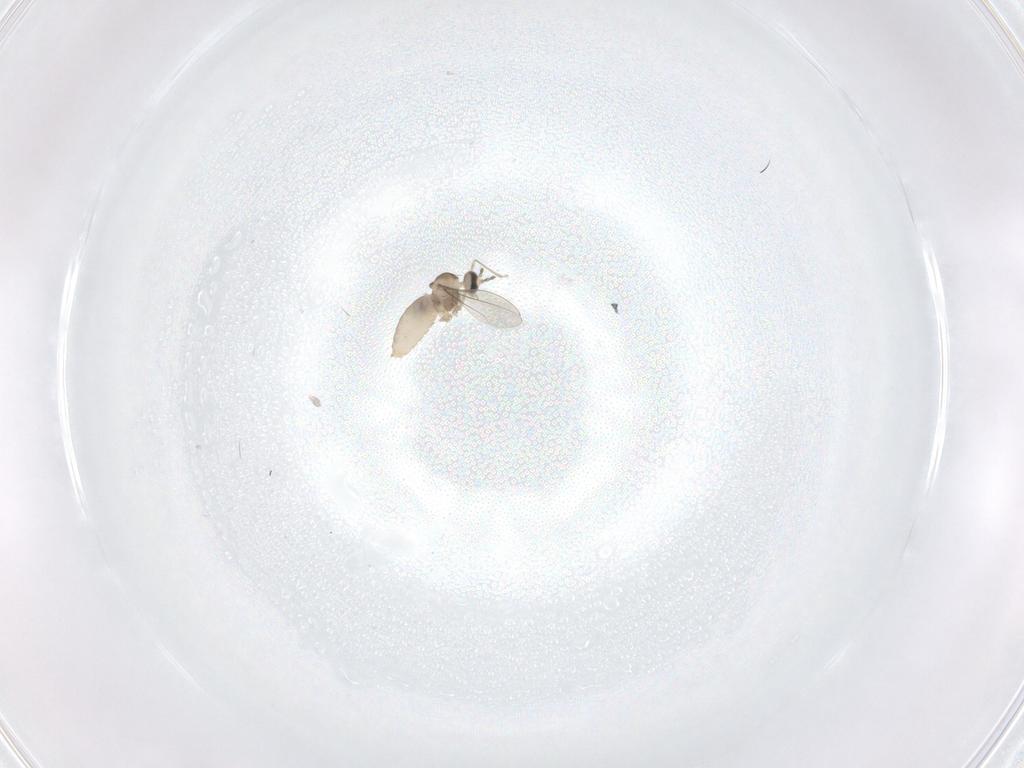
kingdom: Animalia
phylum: Arthropoda
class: Insecta
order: Diptera
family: Cecidomyiidae
